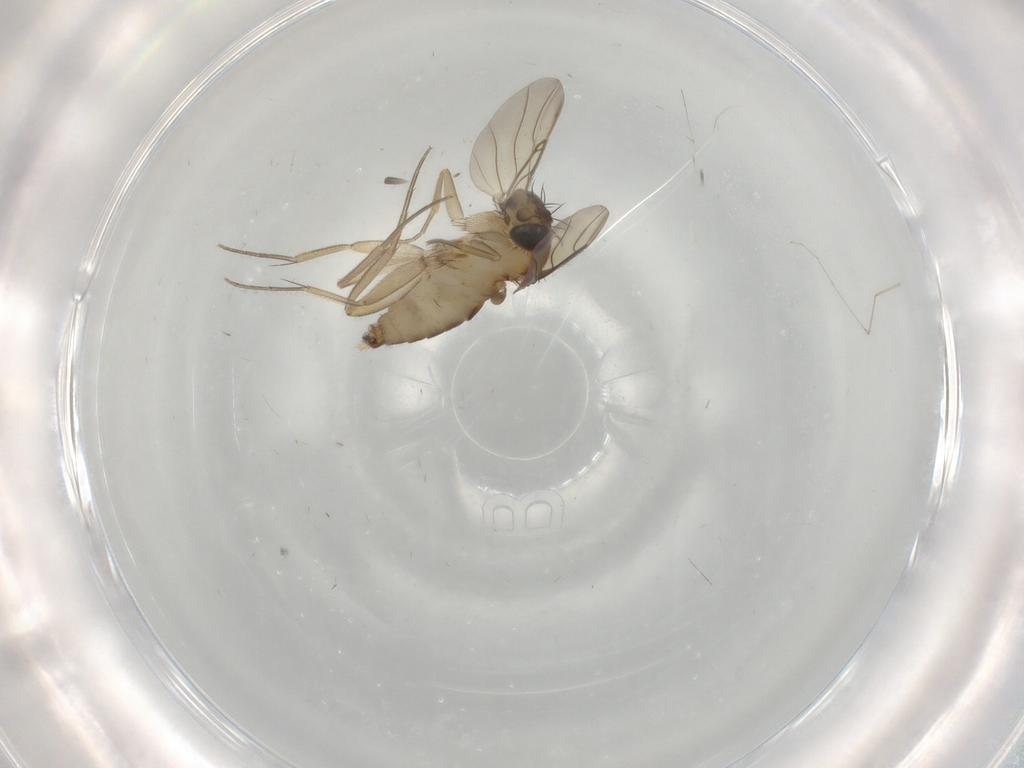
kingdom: Animalia
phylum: Arthropoda
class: Insecta
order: Diptera
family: Phoridae
